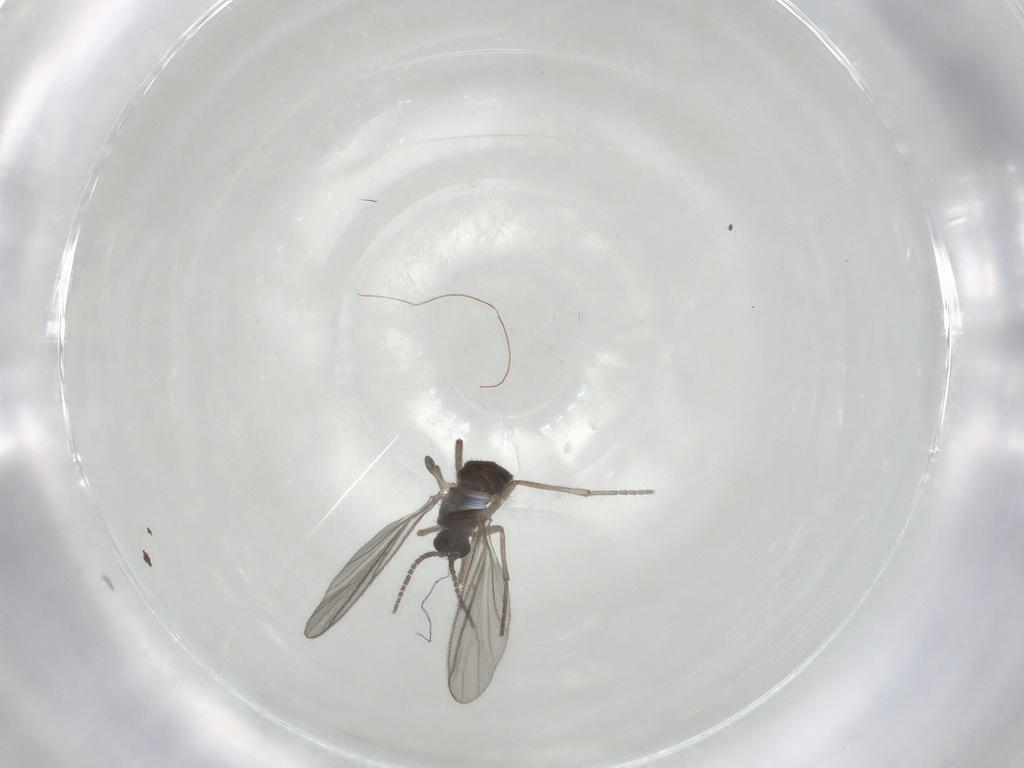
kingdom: Animalia
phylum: Arthropoda
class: Insecta
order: Diptera
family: Sciaridae
